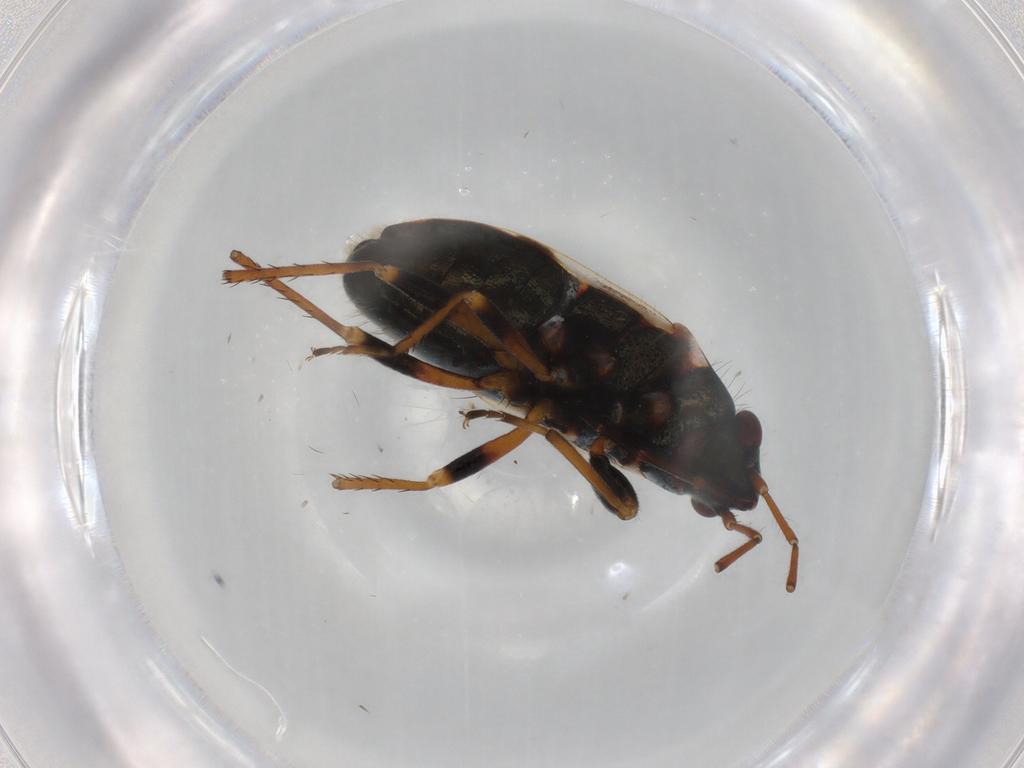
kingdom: Animalia
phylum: Arthropoda
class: Insecta
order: Hemiptera
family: Rhyparochromidae
